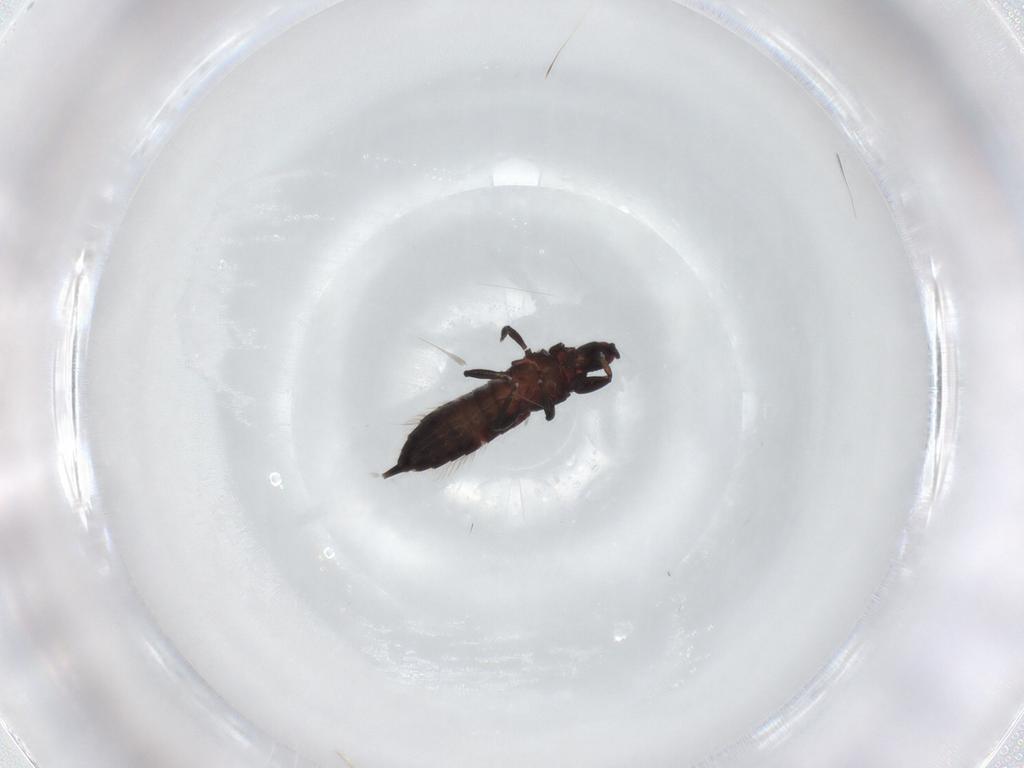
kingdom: Animalia
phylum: Arthropoda
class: Insecta
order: Thysanoptera
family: Phlaeothripidae
